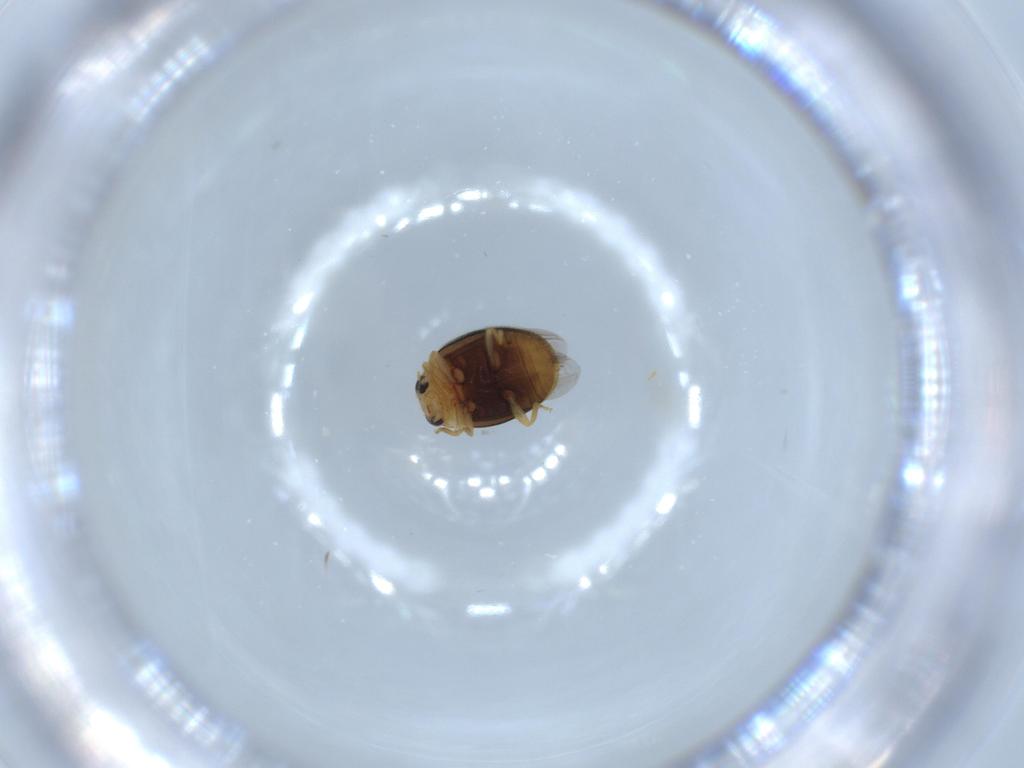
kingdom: Animalia
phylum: Arthropoda
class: Insecta
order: Coleoptera
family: Coccinellidae
